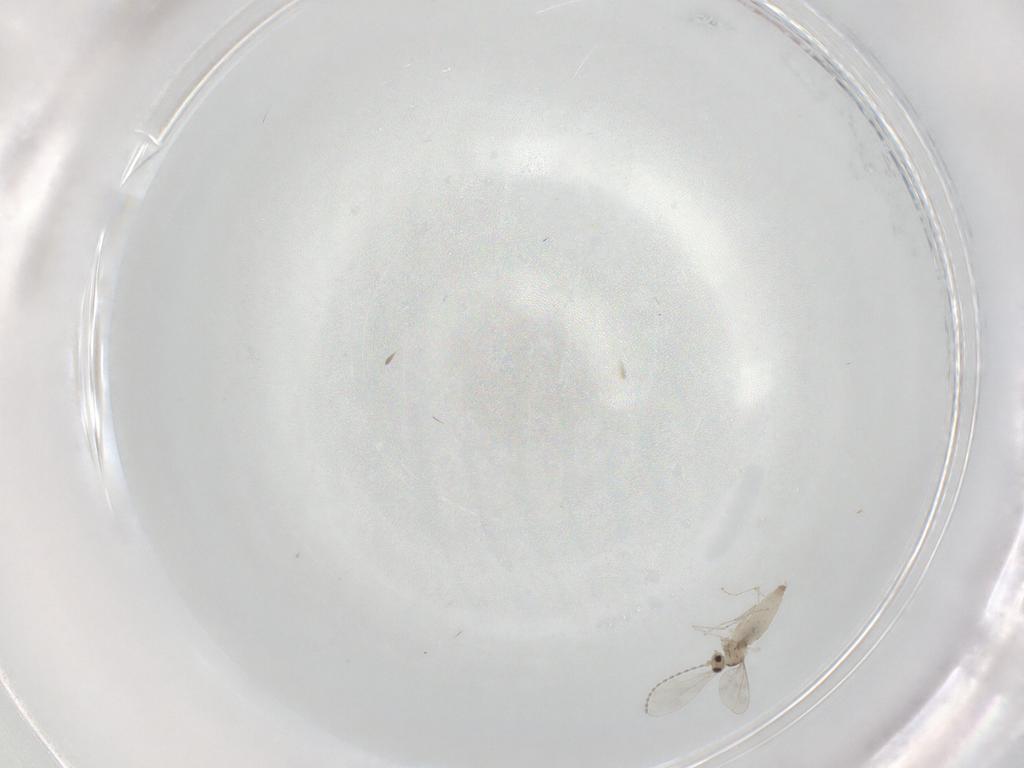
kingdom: Animalia
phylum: Arthropoda
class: Insecta
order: Diptera
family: Cecidomyiidae
